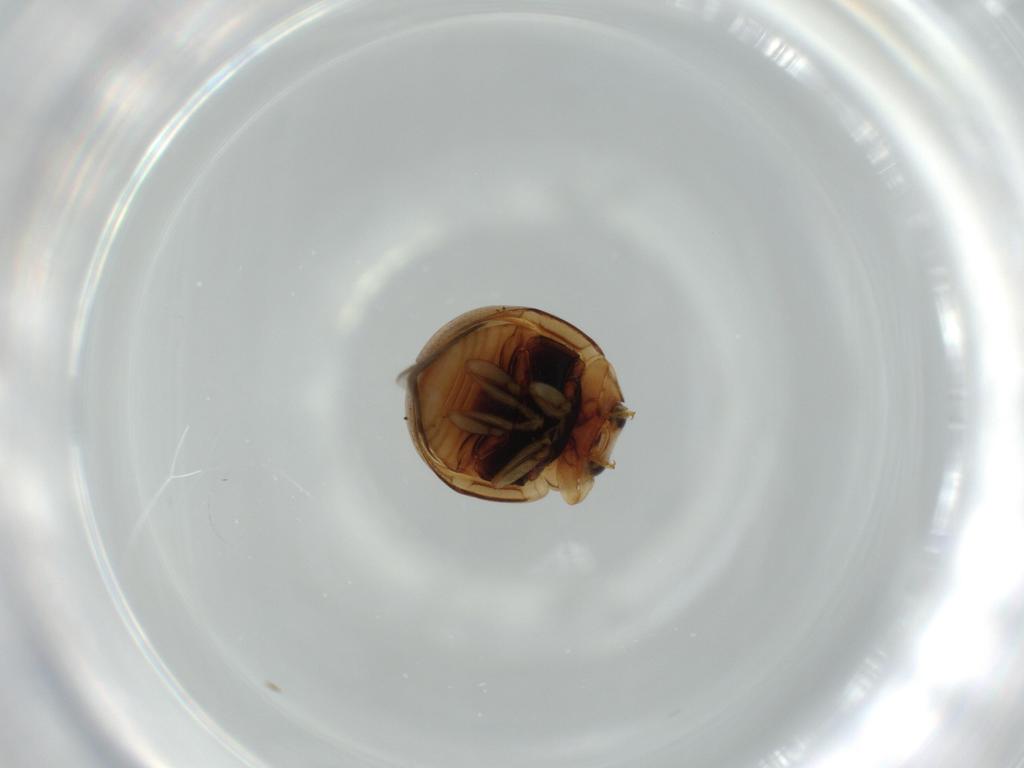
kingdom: Animalia
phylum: Arthropoda
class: Insecta
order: Coleoptera
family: Coccinellidae
